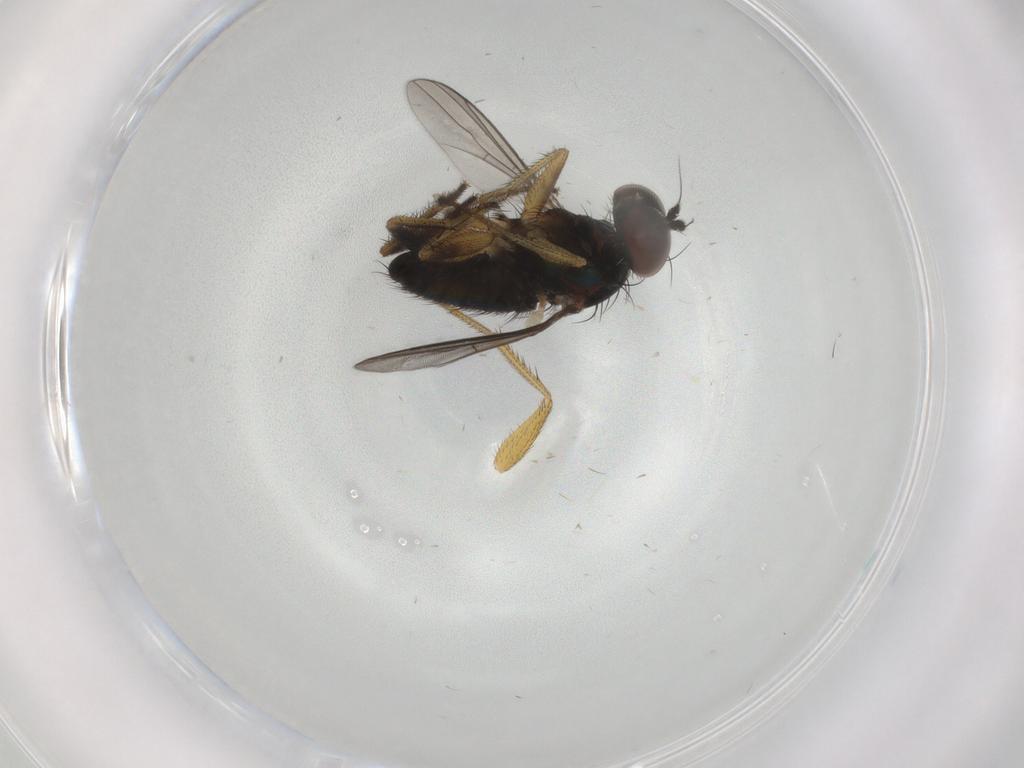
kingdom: Animalia
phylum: Arthropoda
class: Insecta
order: Diptera
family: Dolichopodidae
